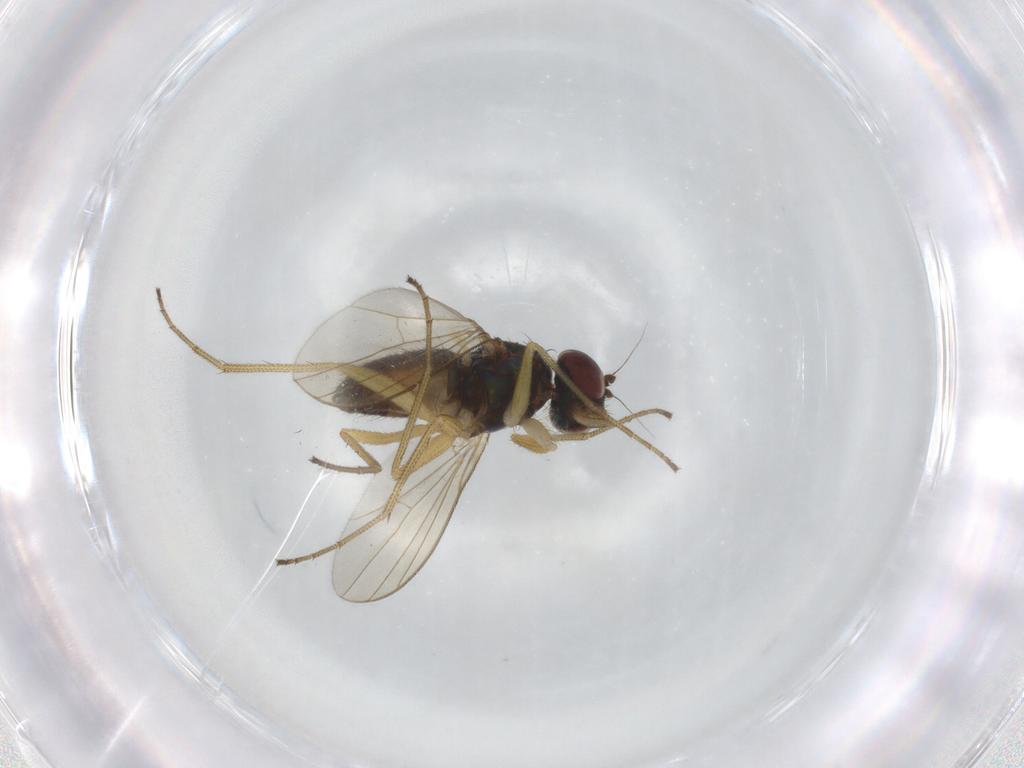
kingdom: Animalia
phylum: Arthropoda
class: Insecta
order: Diptera
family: Dolichopodidae
